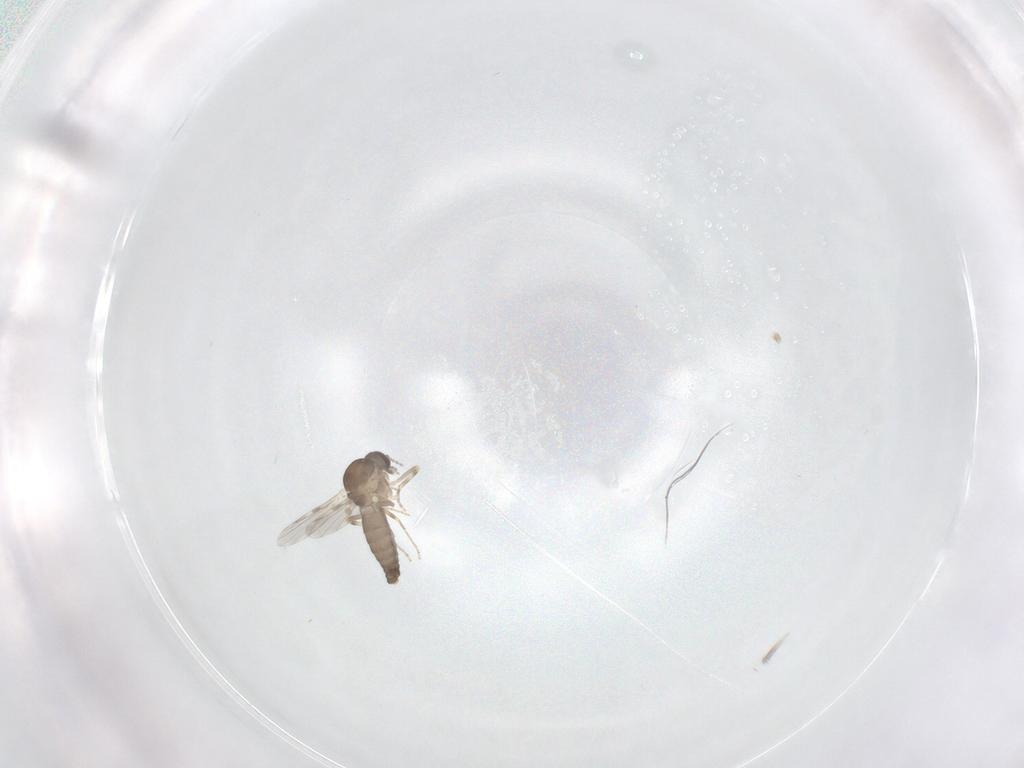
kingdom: Animalia
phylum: Arthropoda
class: Insecta
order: Diptera
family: Ceratopogonidae
